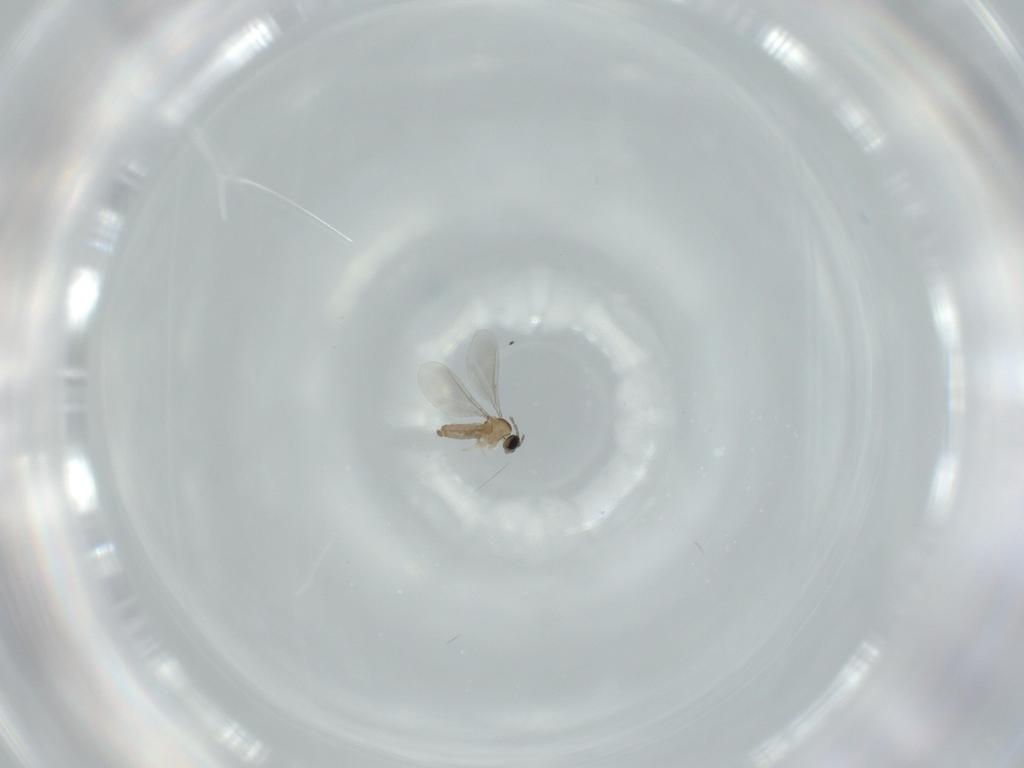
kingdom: Animalia
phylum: Arthropoda
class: Insecta
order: Diptera
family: Cecidomyiidae
